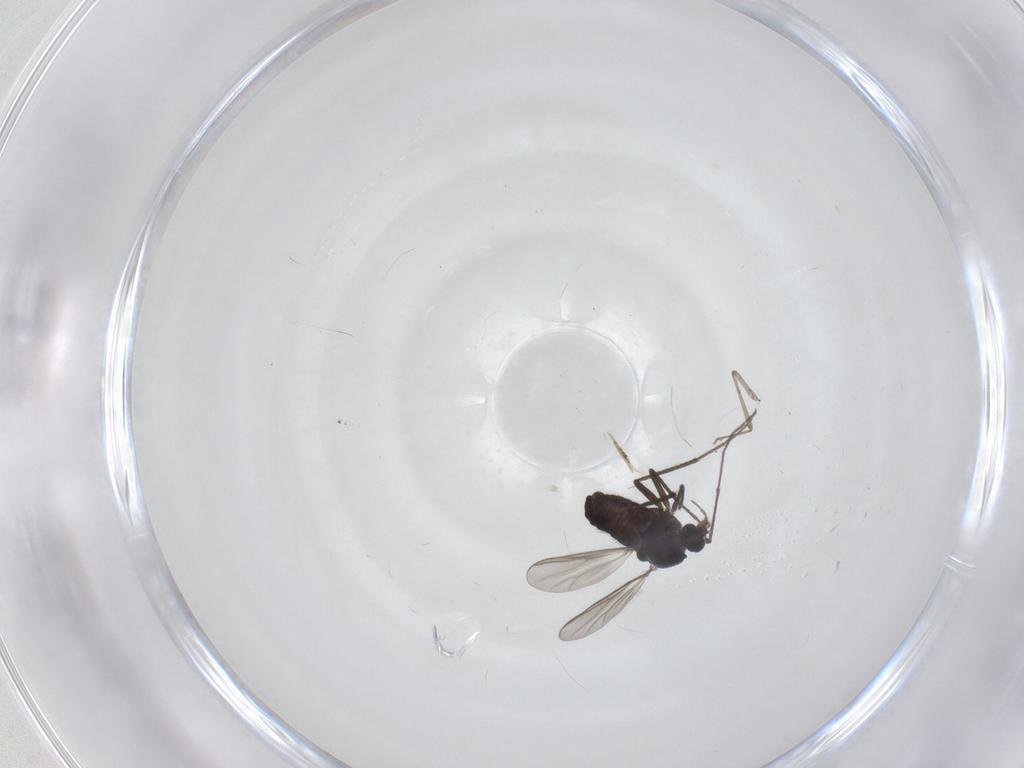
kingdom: Animalia
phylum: Arthropoda
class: Insecta
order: Diptera
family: Chironomidae
